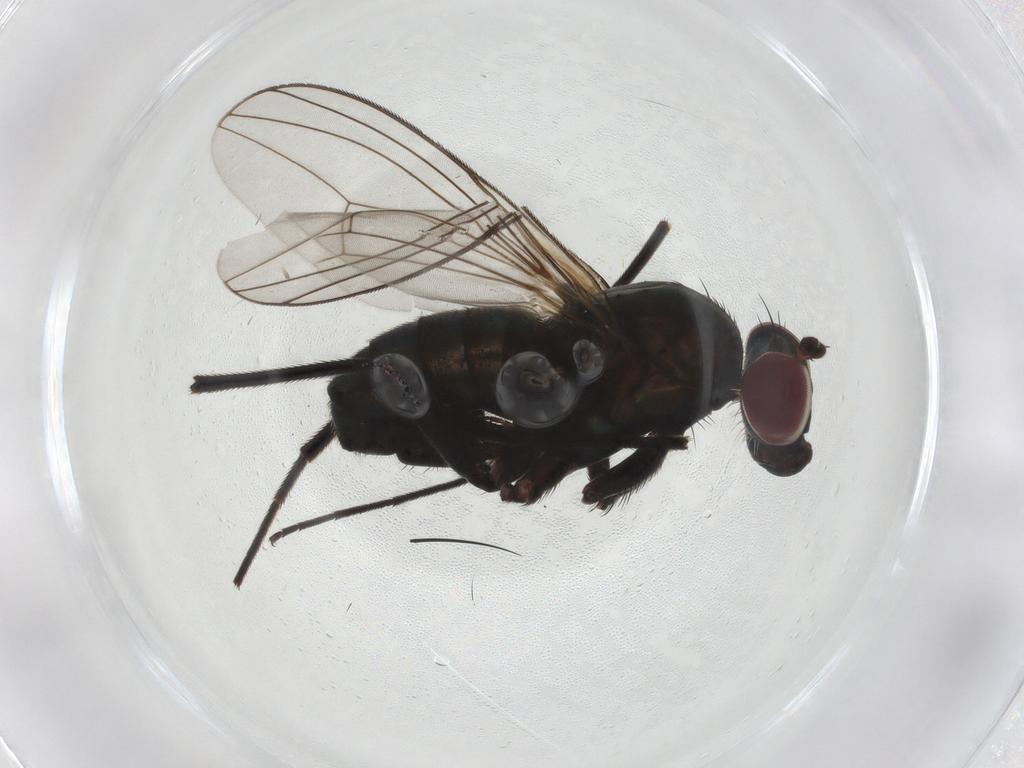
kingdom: Animalia
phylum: Arthropoda
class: Insecta
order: Diptera
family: Dolichopodidae
